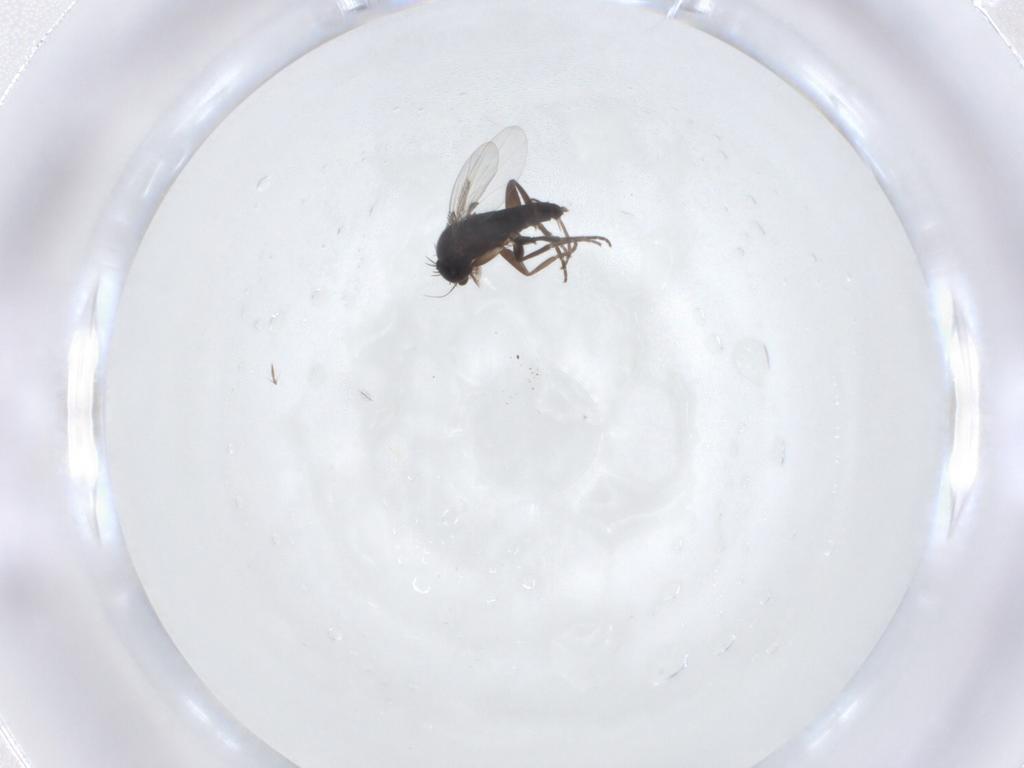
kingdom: Animalia
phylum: Arthropoda
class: Insecta
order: Diptera
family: Phoridae
